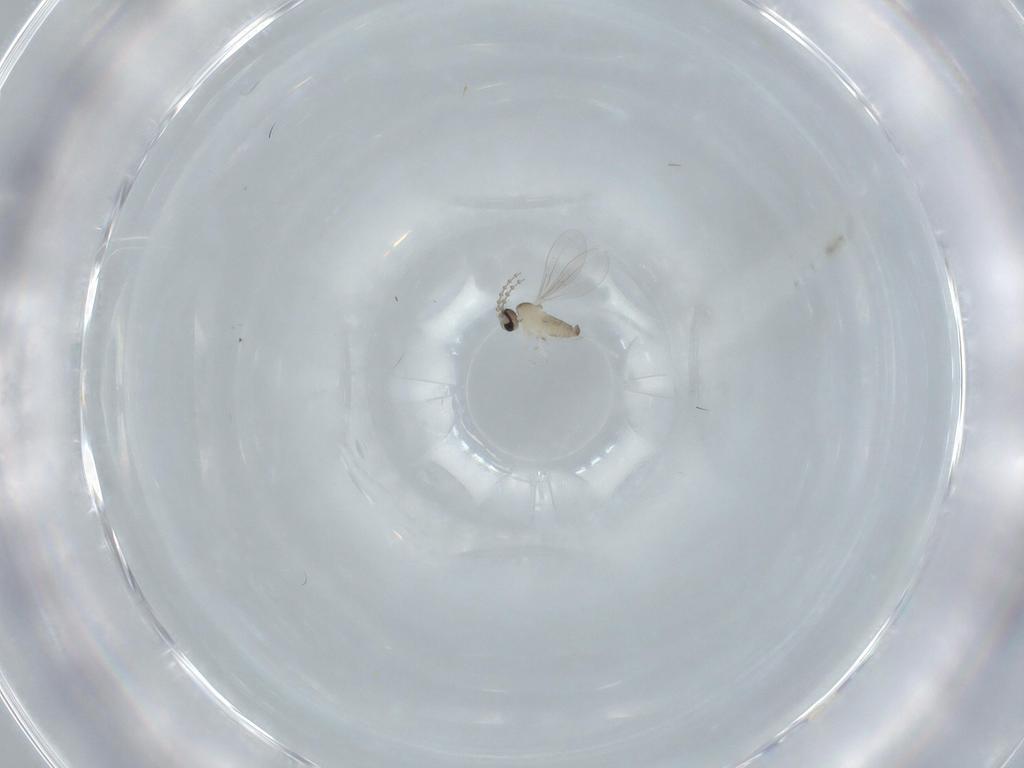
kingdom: Animalia
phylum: Arthropoda
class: Insecta
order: Diptera
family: Cecidomyiidae
